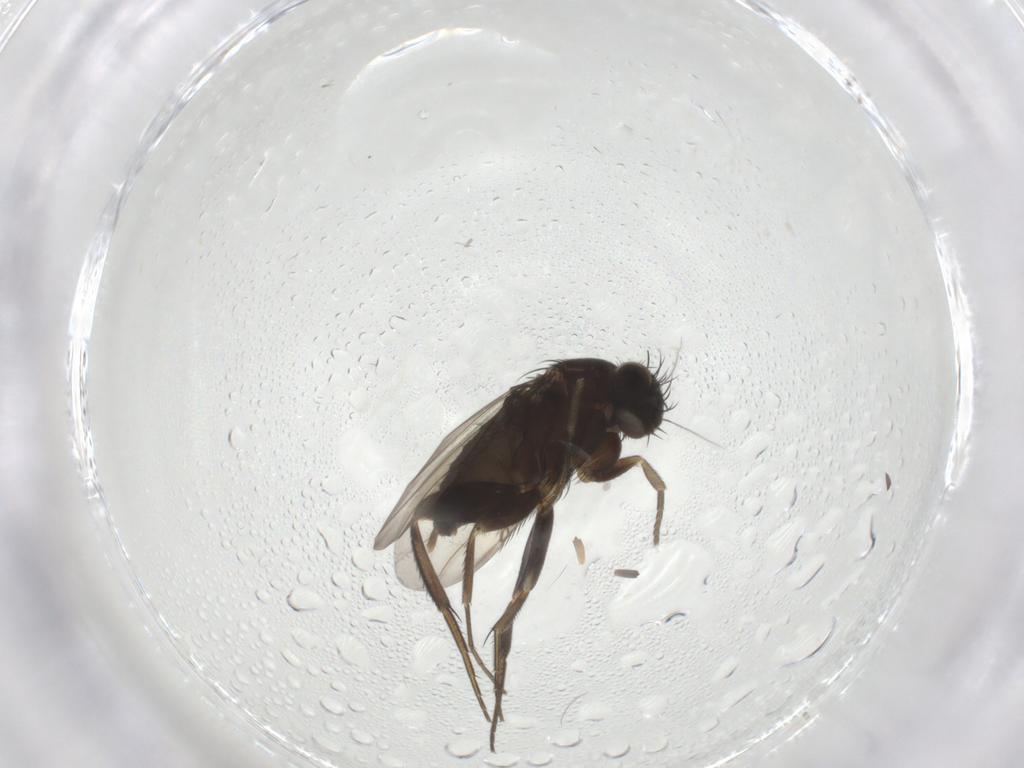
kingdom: Animalia
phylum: Arthropoda
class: Insecta
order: Diptera
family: Phoridae
